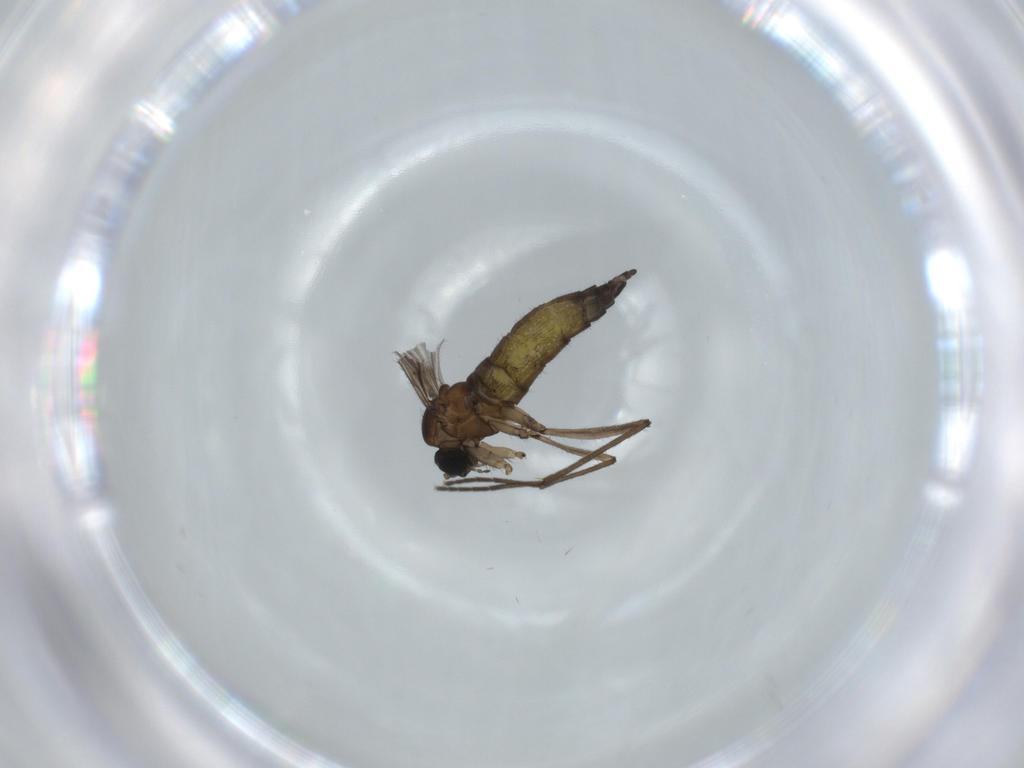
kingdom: Animalia
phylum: Arthropoda
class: Insecta
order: Diptera
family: Sciaridae
